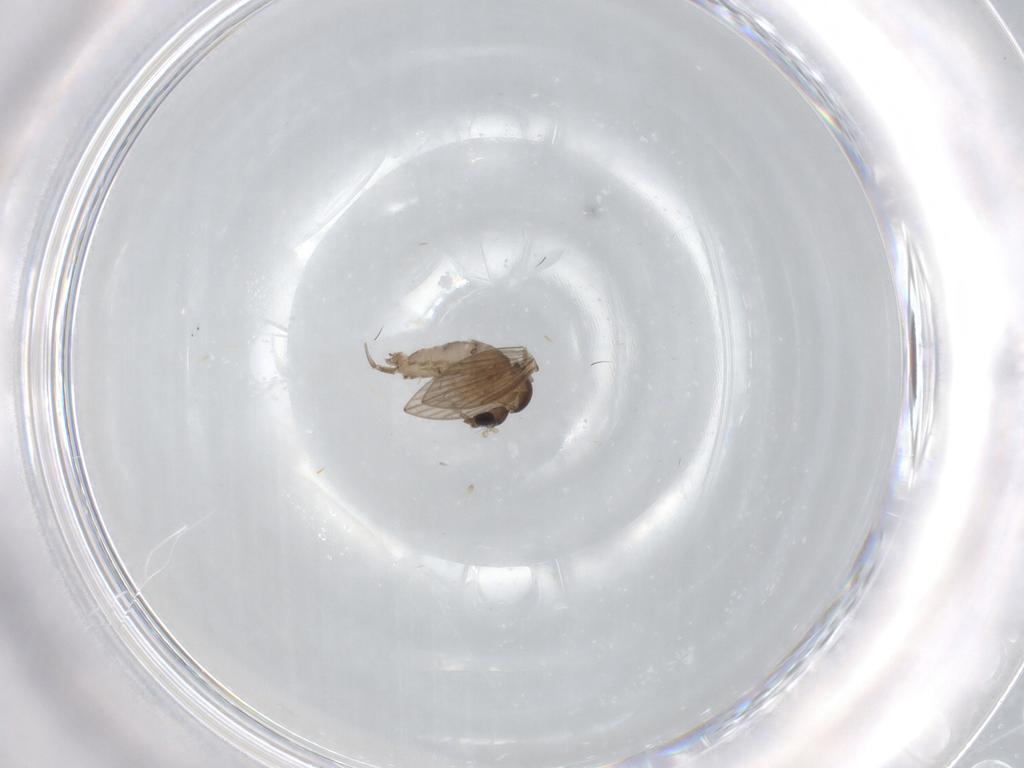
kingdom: Animalia
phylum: Arthropoda
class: Insecta
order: Diptera
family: Psychodidae
